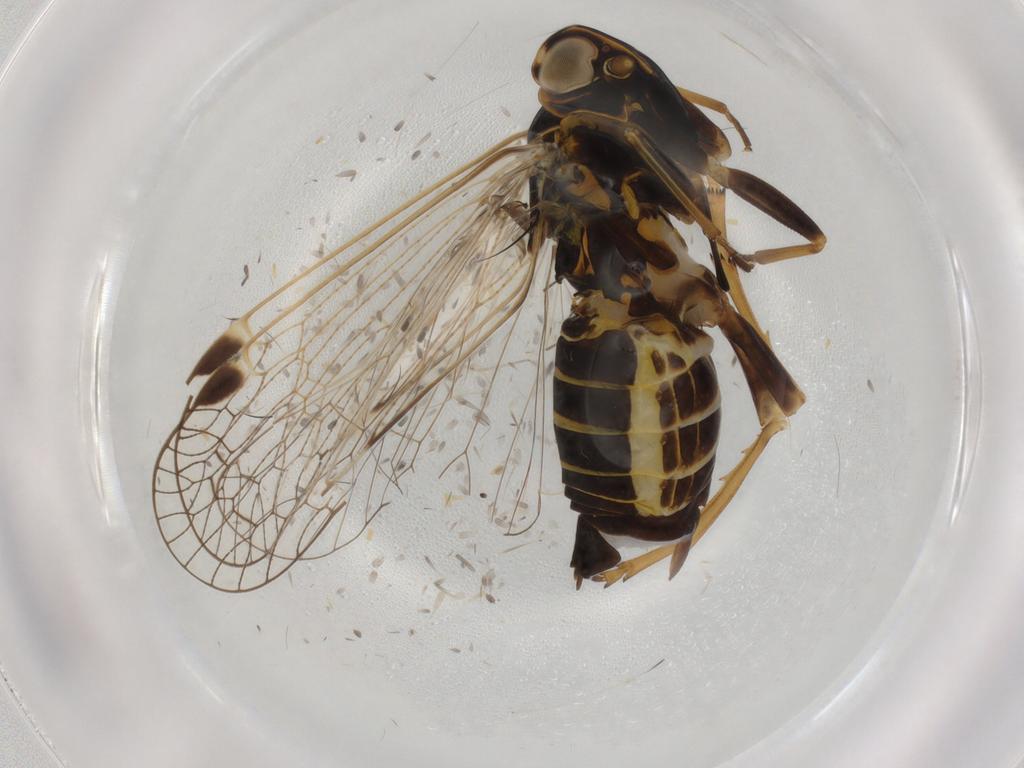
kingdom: Animalia
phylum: Arthropoda
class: Insecta
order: Hemiptera
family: Cixiidae
